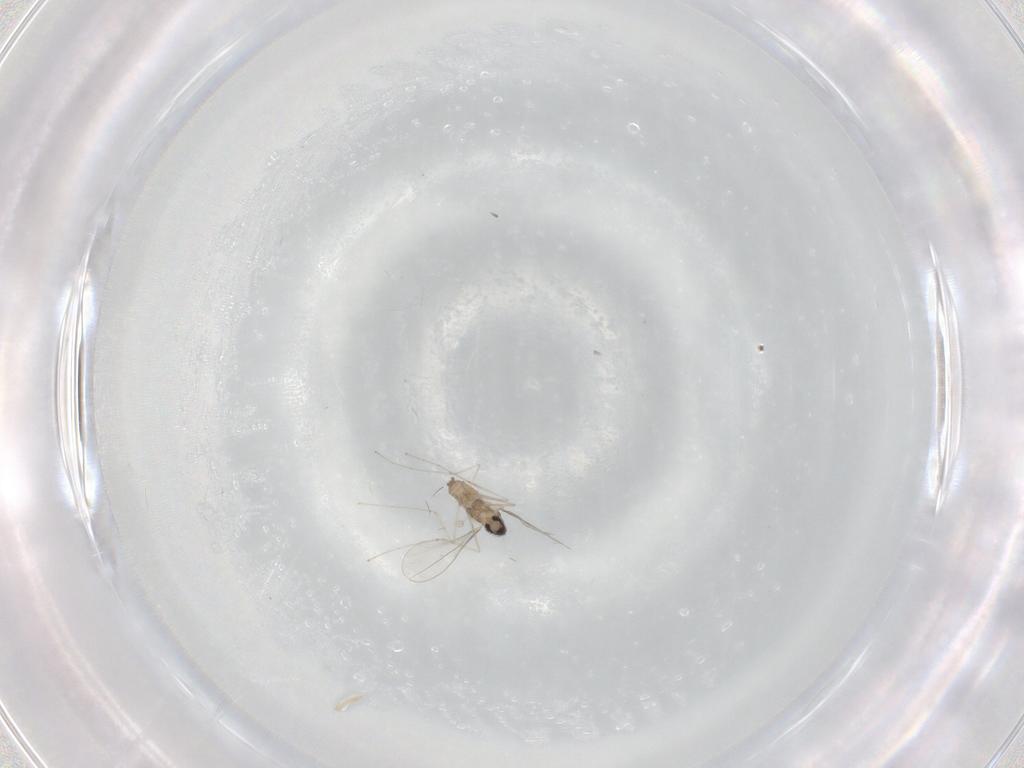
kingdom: Animalia
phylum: Arthropoda
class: Insecta
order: Diptera
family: Cecidomyiidae
